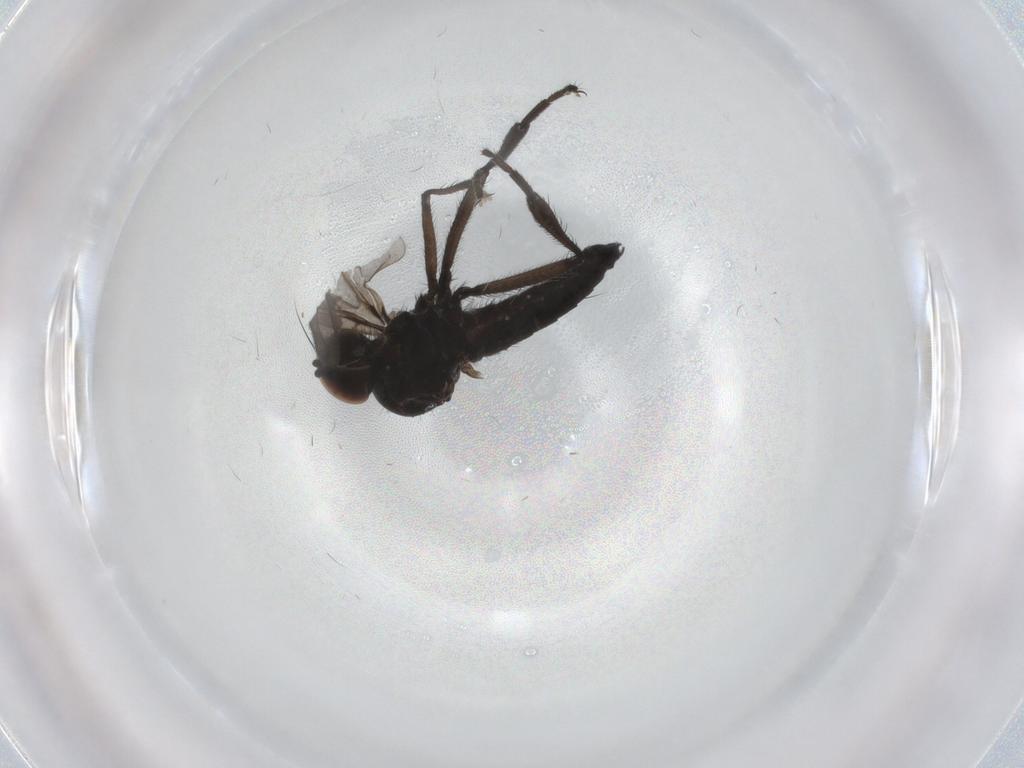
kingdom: Animalia
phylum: Arthropoda
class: Insecta
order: Diptera
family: Hybotidae
